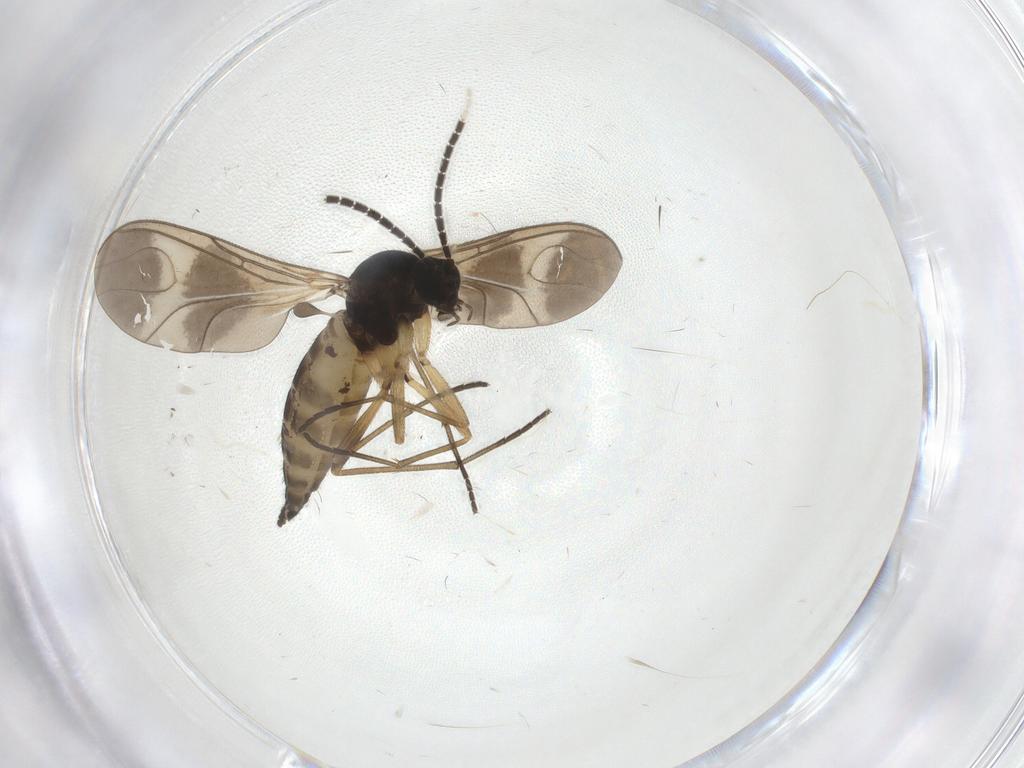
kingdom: Animalia
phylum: Arthropoda
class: Insecta
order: Diptera
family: Sciaridae
